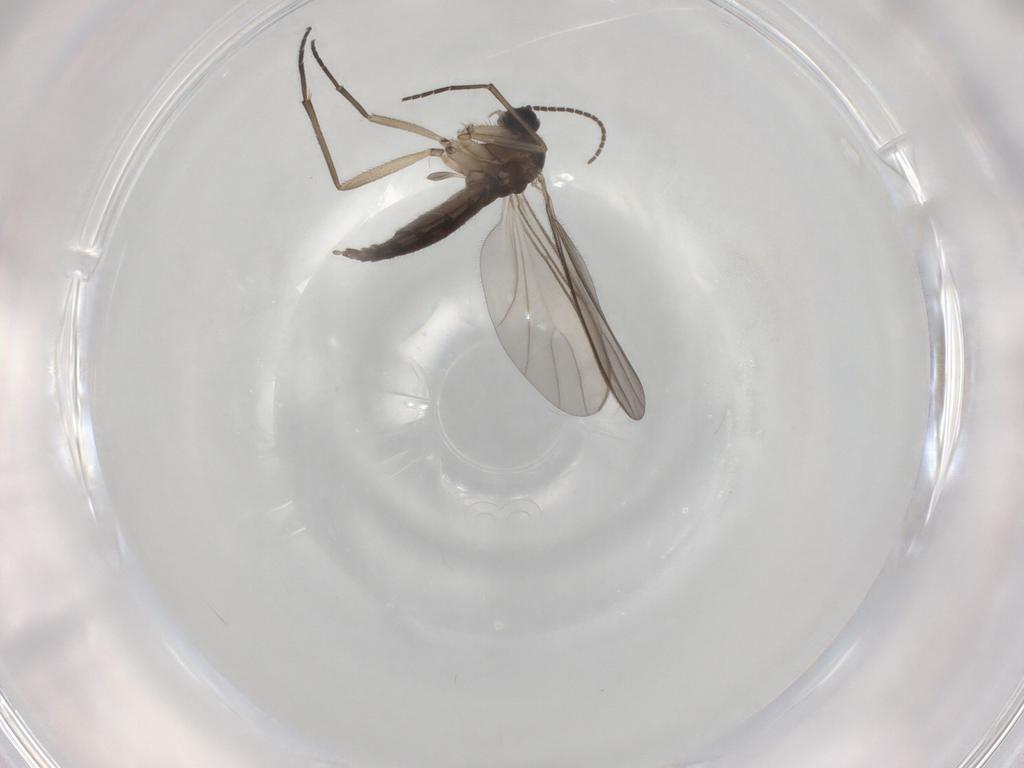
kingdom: Animalia
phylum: Arthropoda
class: Insecta
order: Diptera
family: Sciaridae
